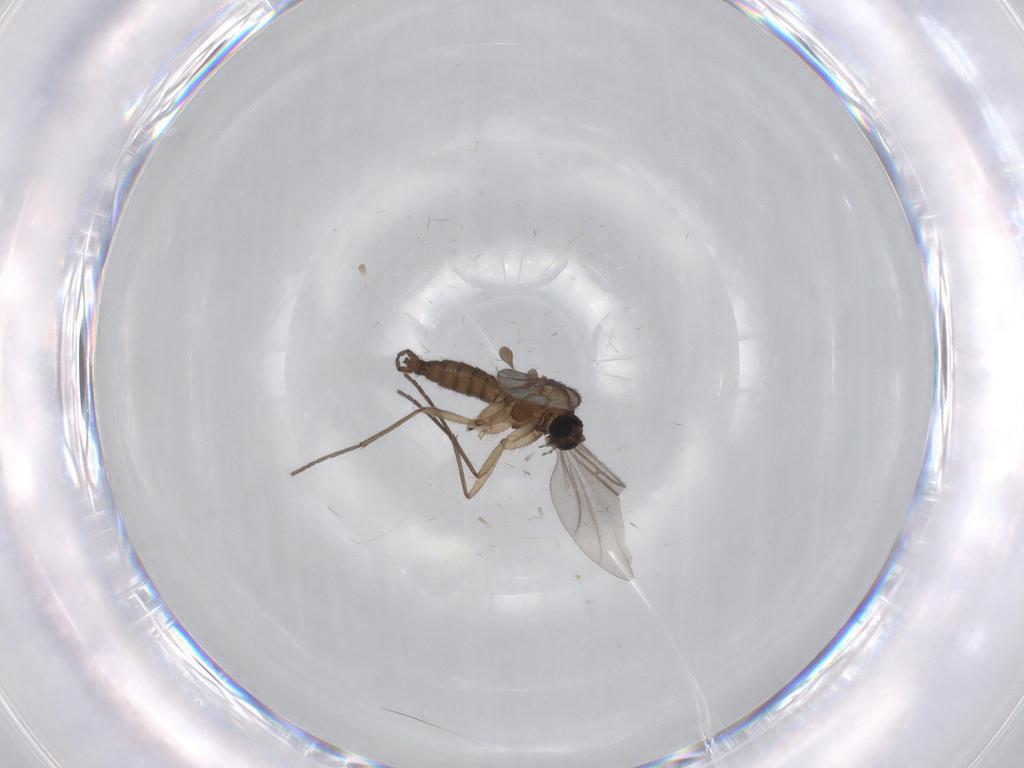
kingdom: Animalia
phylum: Arthropoda
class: Insecta
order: Diptera
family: Sciaridae
